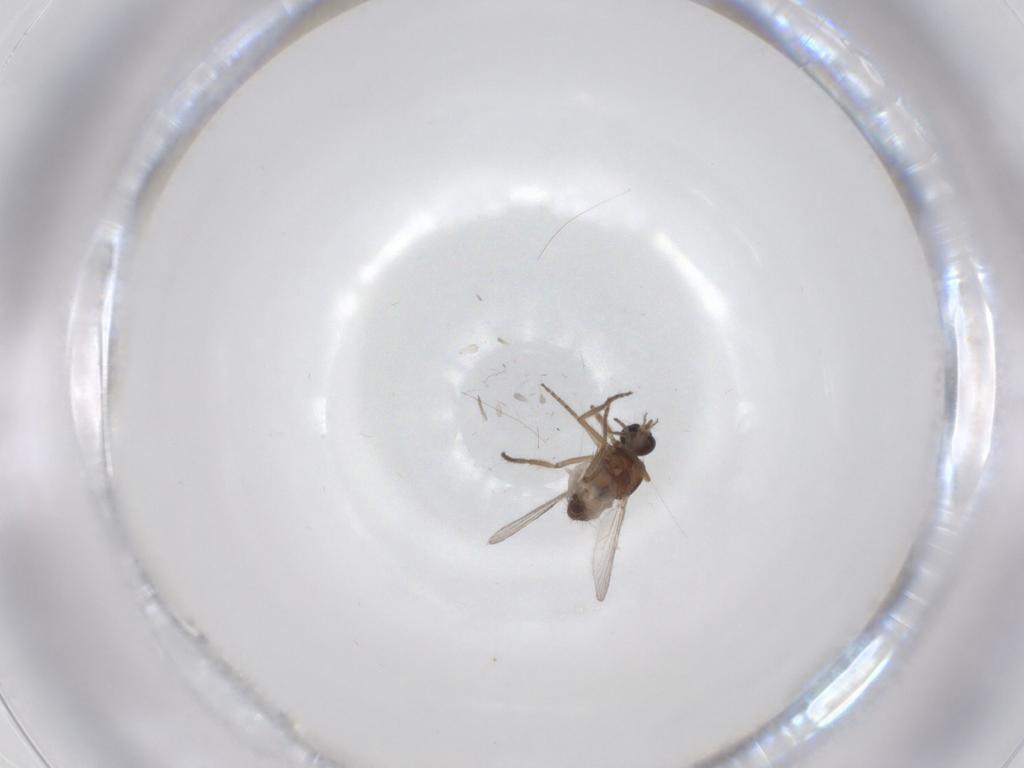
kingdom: Animalia
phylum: Arthropoda
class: Insecta
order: Diptera
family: Ceratopogonidae
